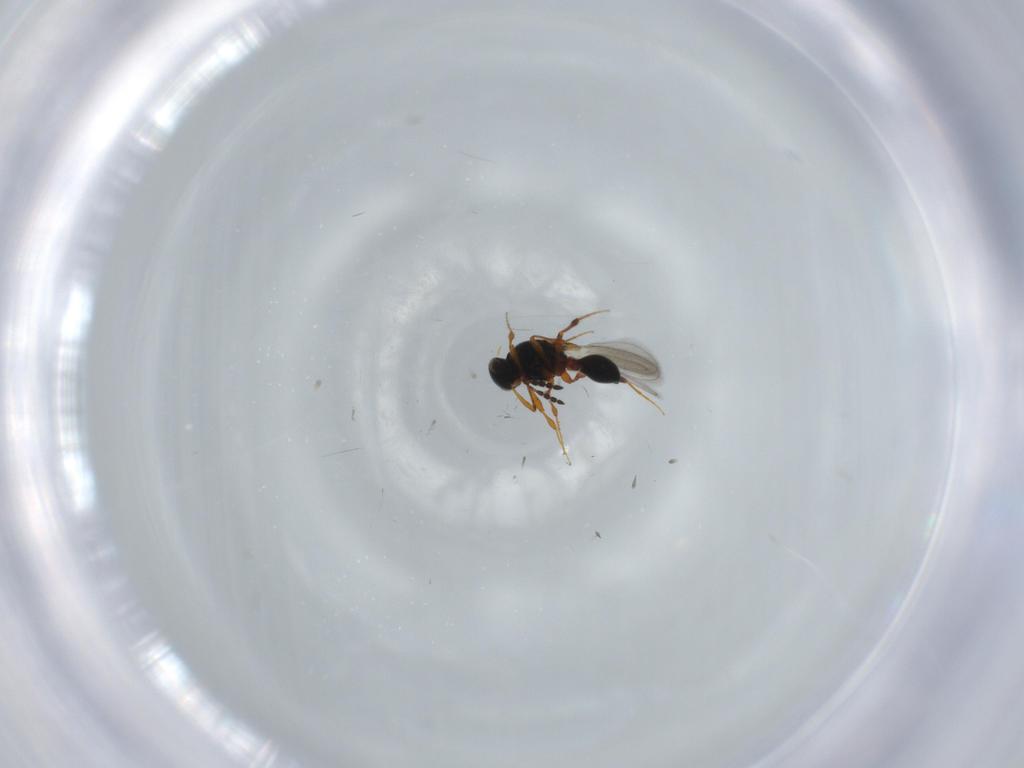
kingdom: Animalia
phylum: Arthropoda
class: Insecta
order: Hymenoptera
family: Platygastridae
